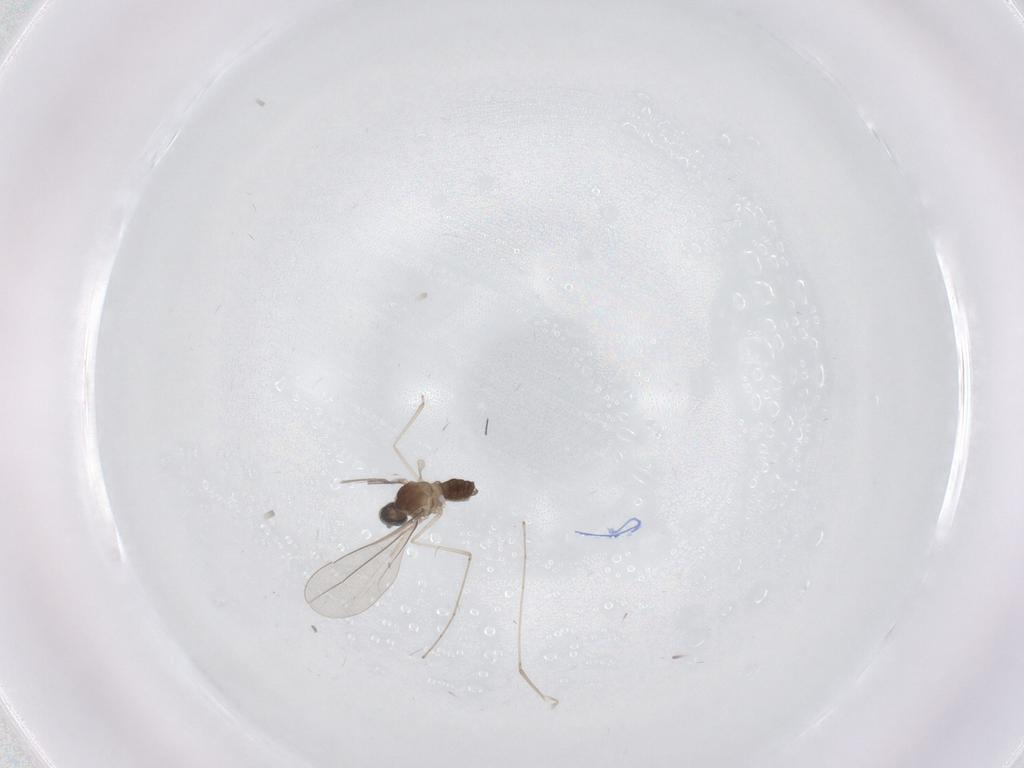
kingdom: Animalia
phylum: Arthropoda
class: Insecta
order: Diptera
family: Cecidomyiidae
